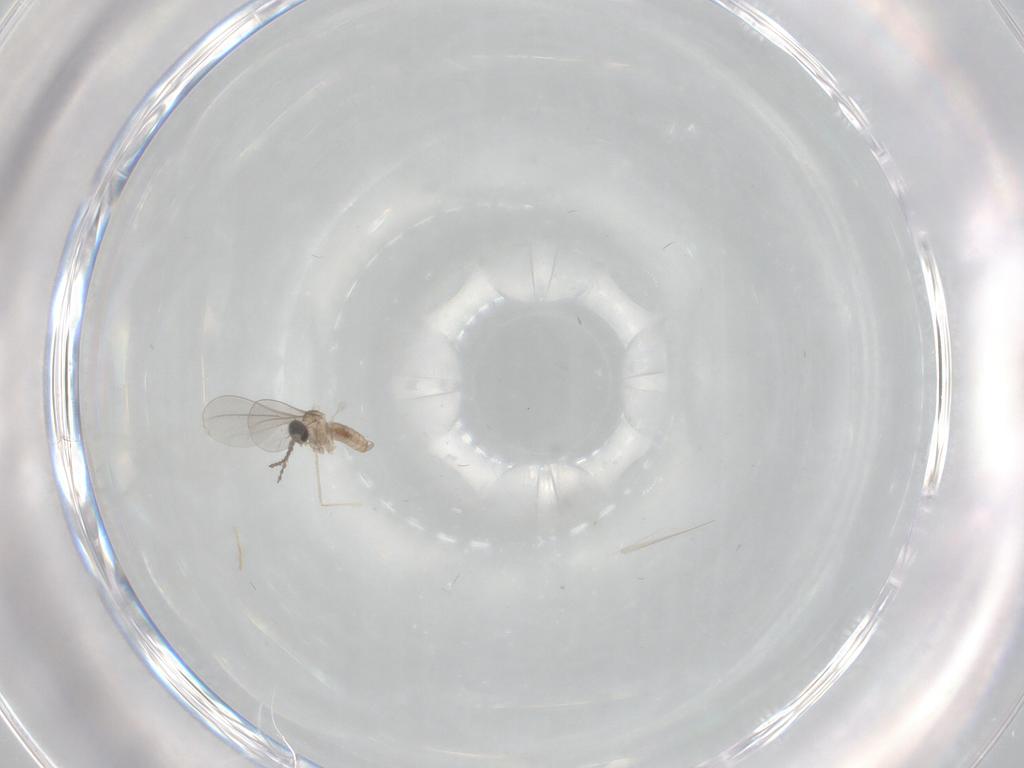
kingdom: Animalia
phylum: Arthropoda
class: Insecta
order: Diptera
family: Cecidomyiidae
